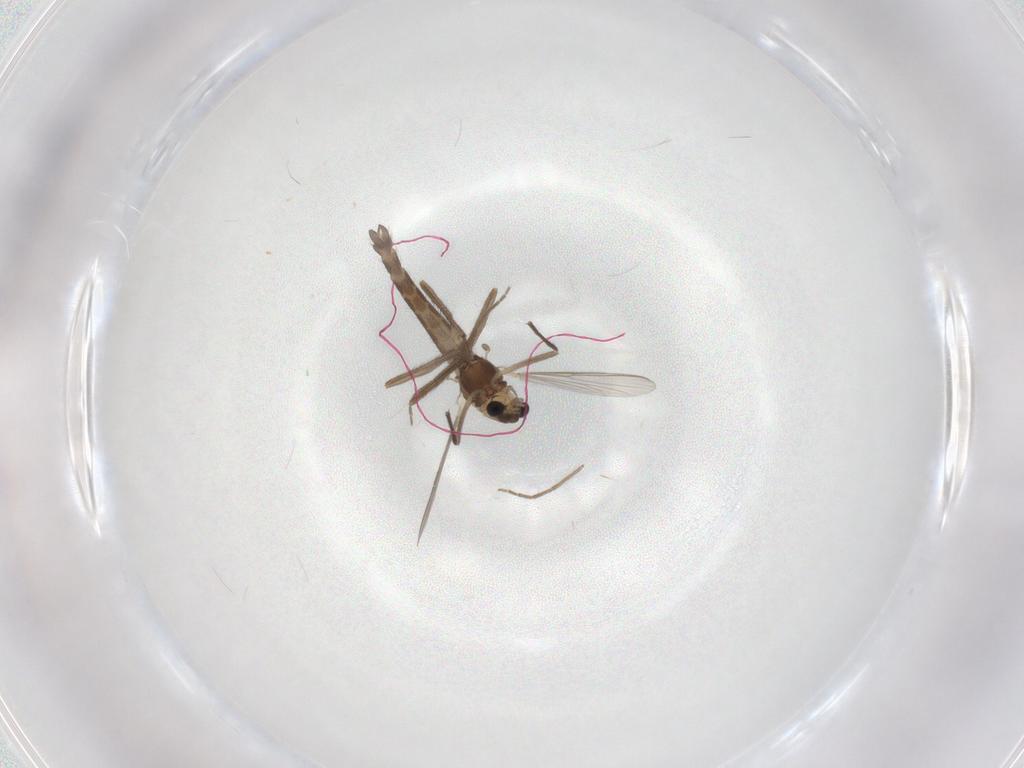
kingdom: Animalia
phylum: Arthropoda
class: Insecta
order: Diptera
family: Chironomidae
